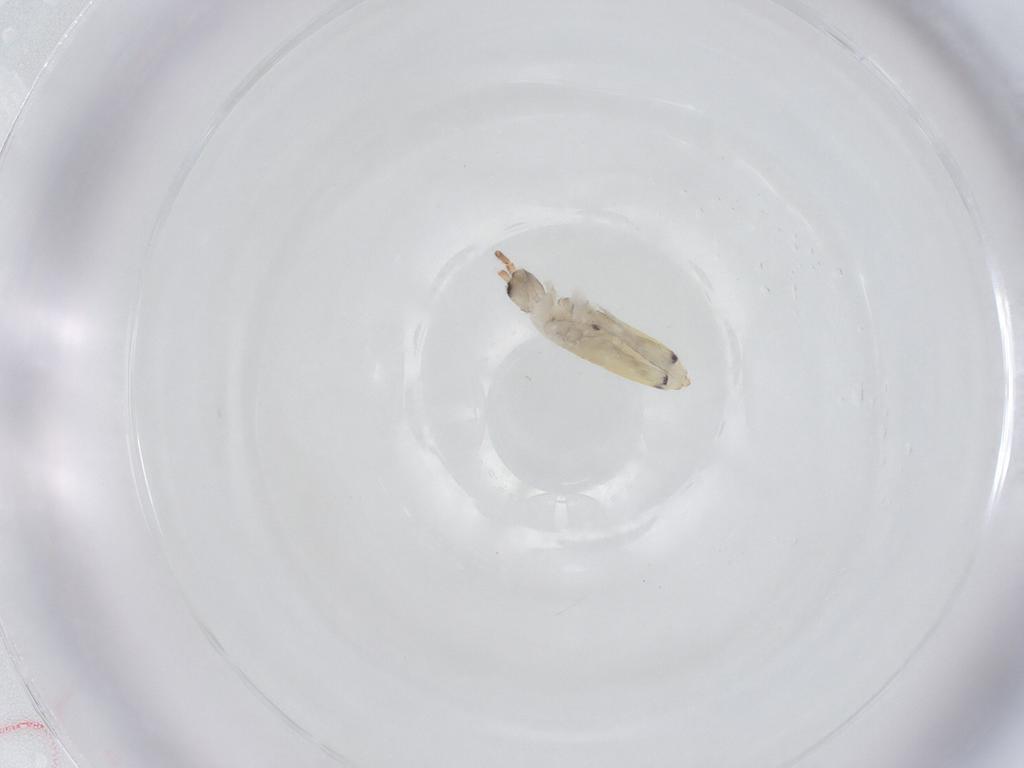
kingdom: Animalia
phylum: Arthropoda
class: Collembola
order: Entomobryomorpha
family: Entomobryidae
